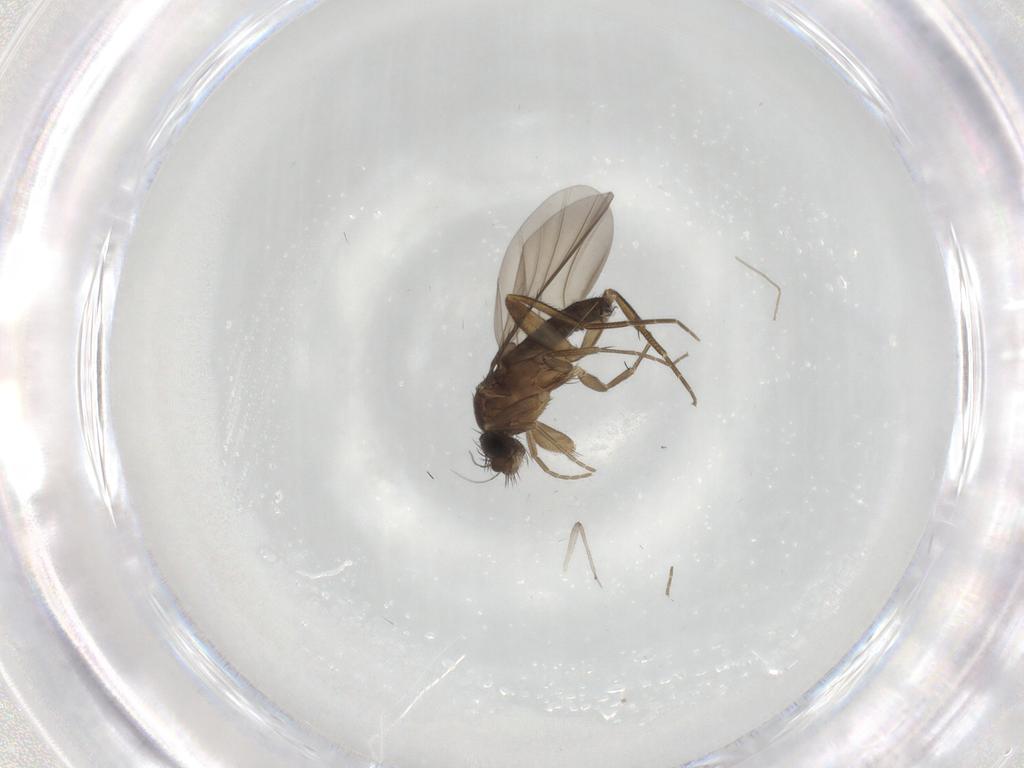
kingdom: Animalia
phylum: Arthropoda
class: Insecta
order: Diptera
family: Phoridae
